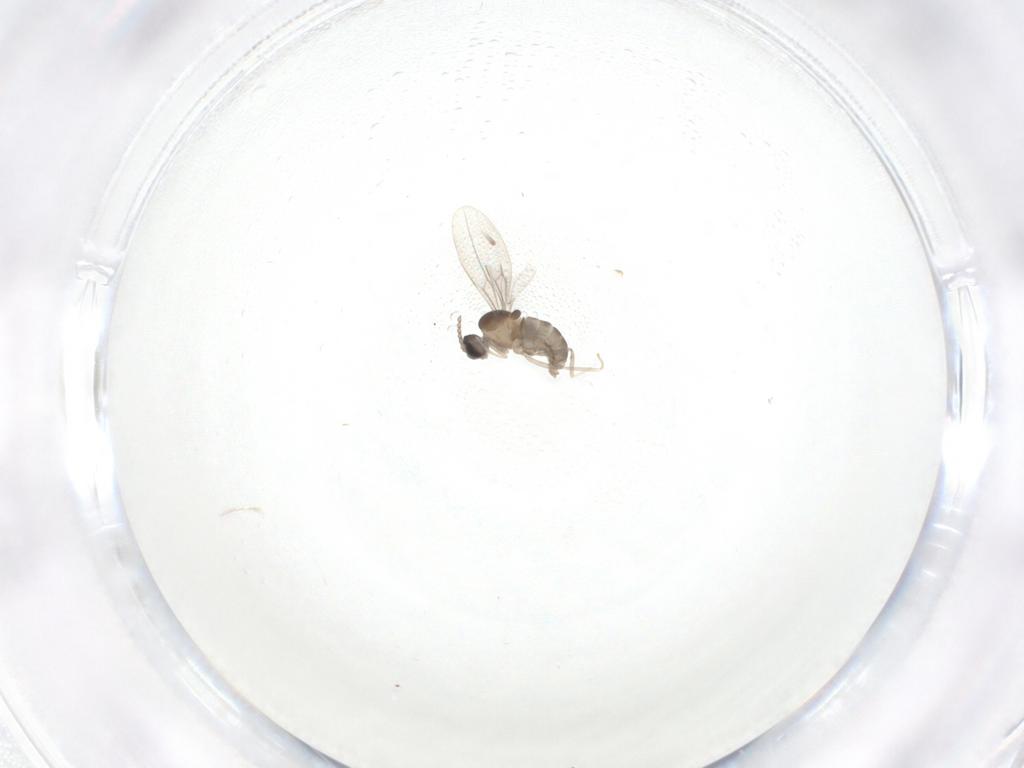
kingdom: Animalia
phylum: Arthropoda
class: Insecta
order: Diptera
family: Cecidomyiidae
